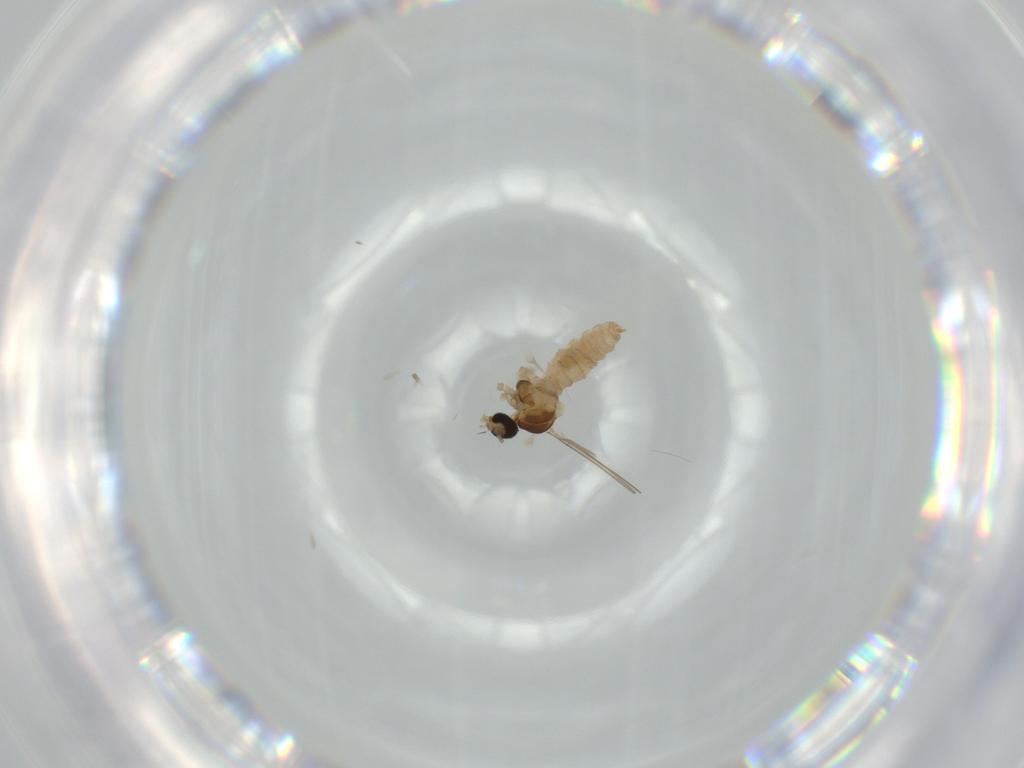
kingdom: Animalia
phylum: Arthropoda
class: Insecta
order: Diptera
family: Cecidomyiidae
